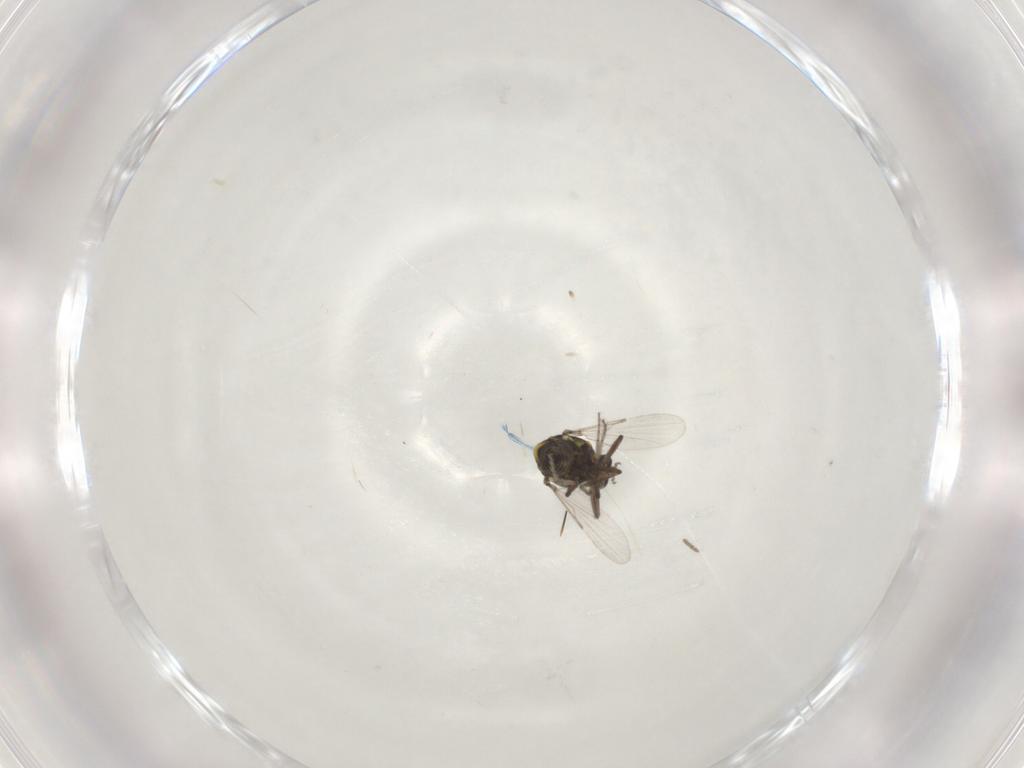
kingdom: Animalia
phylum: Arthropoda
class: Insecta
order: Diptera
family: Ceratopogonidae
